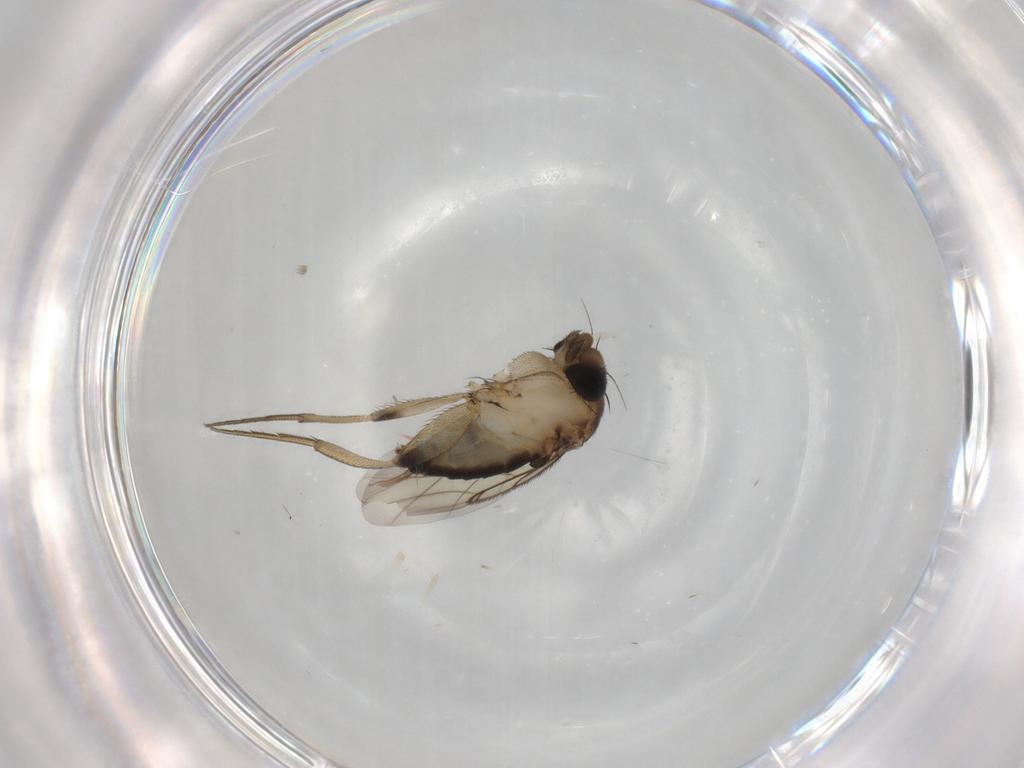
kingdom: Animalia
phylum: Arthropoda
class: Insecta
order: Diptera
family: Phoridae
